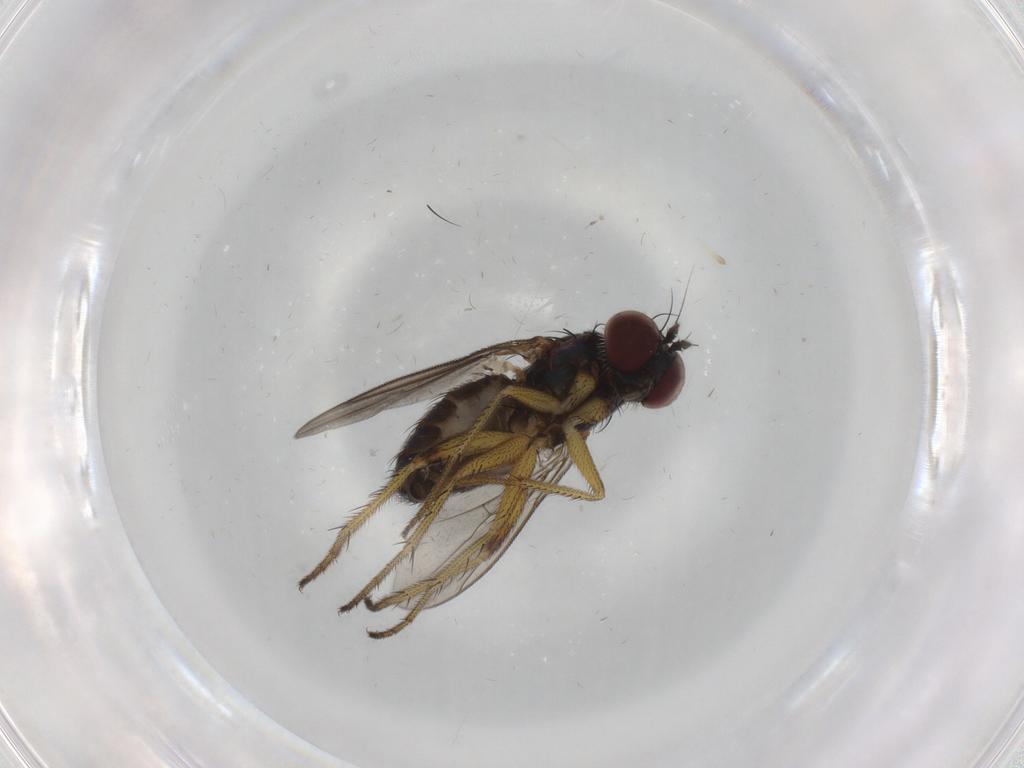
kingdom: Animalia
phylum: Arthropoda
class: Insecta
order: Diptera
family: Dolichopodidae
